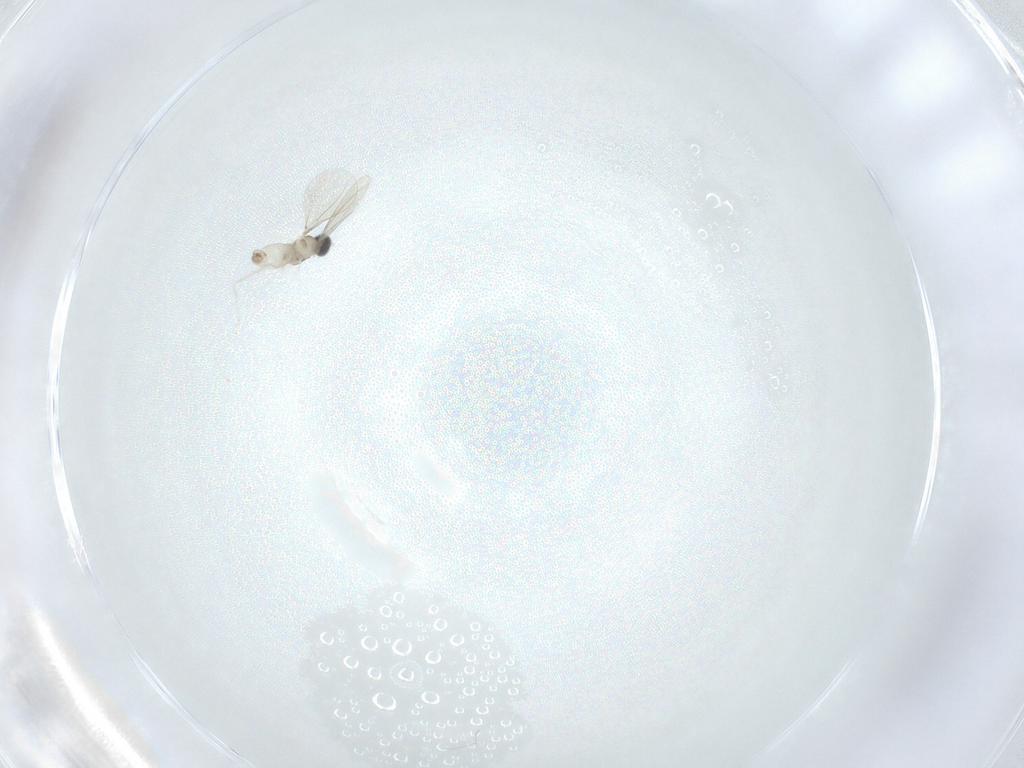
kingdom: Animalia
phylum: Arthropoda
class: Insecta
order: Diptera
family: Cecidomyiidae
